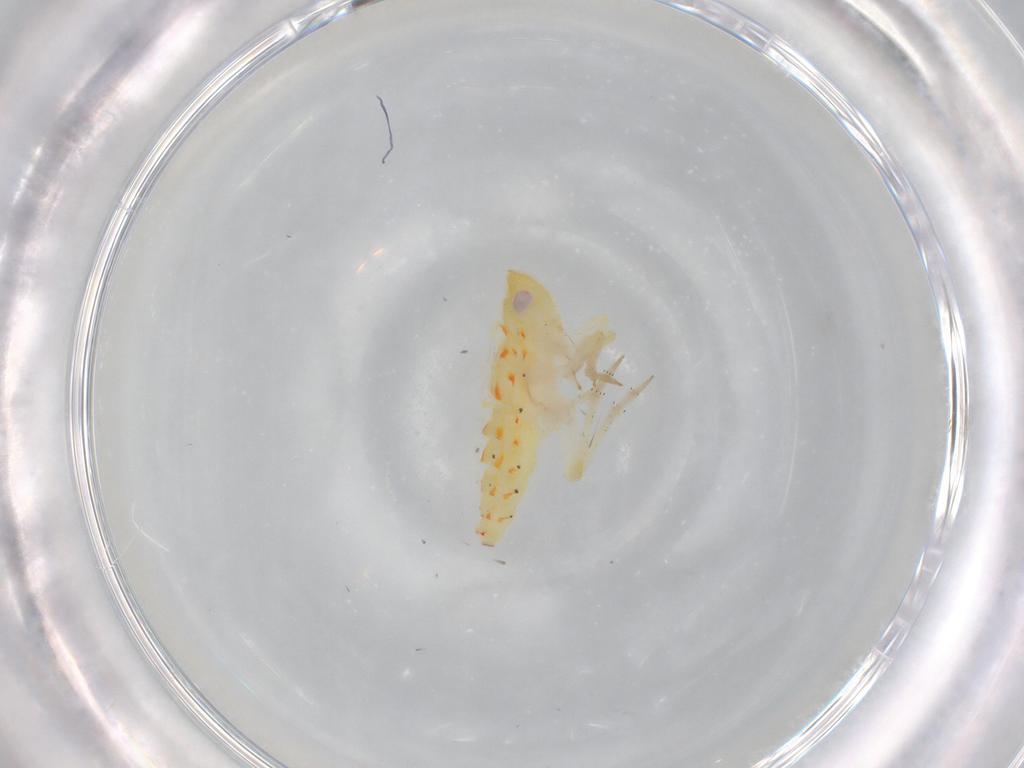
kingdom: Animalia
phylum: Arthropoda
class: Insecta
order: Hemiptera
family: Tropiduchidae
